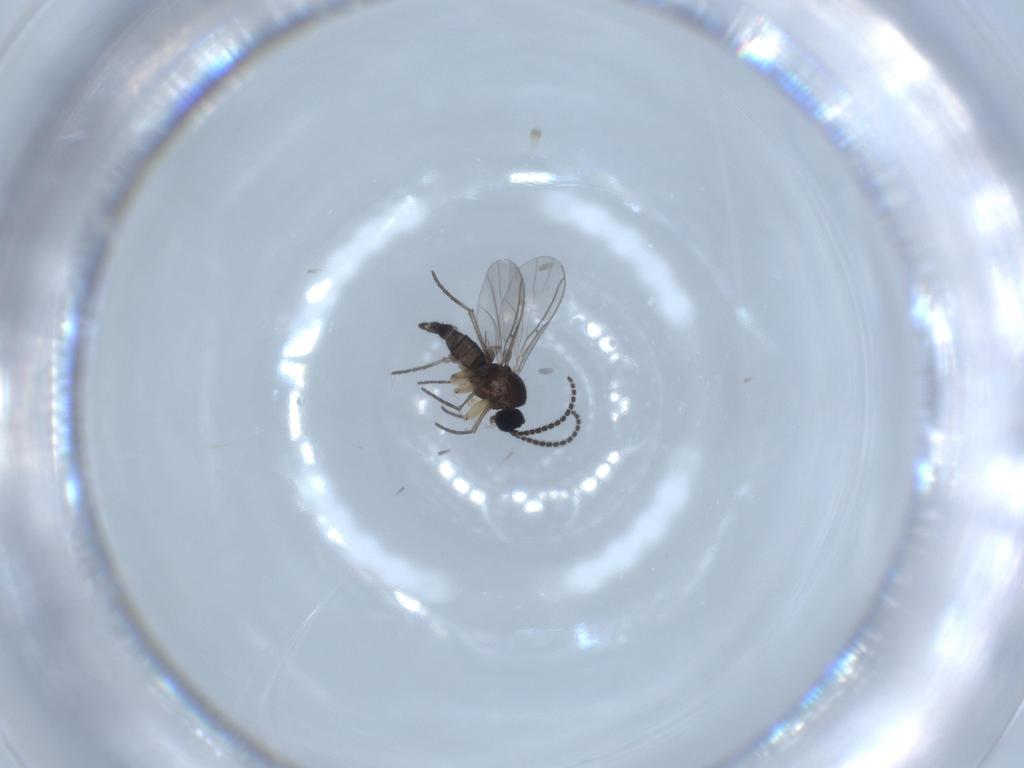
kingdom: Animalia
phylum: Arthropoda
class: Insecta
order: Diptera
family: Sciaridae
